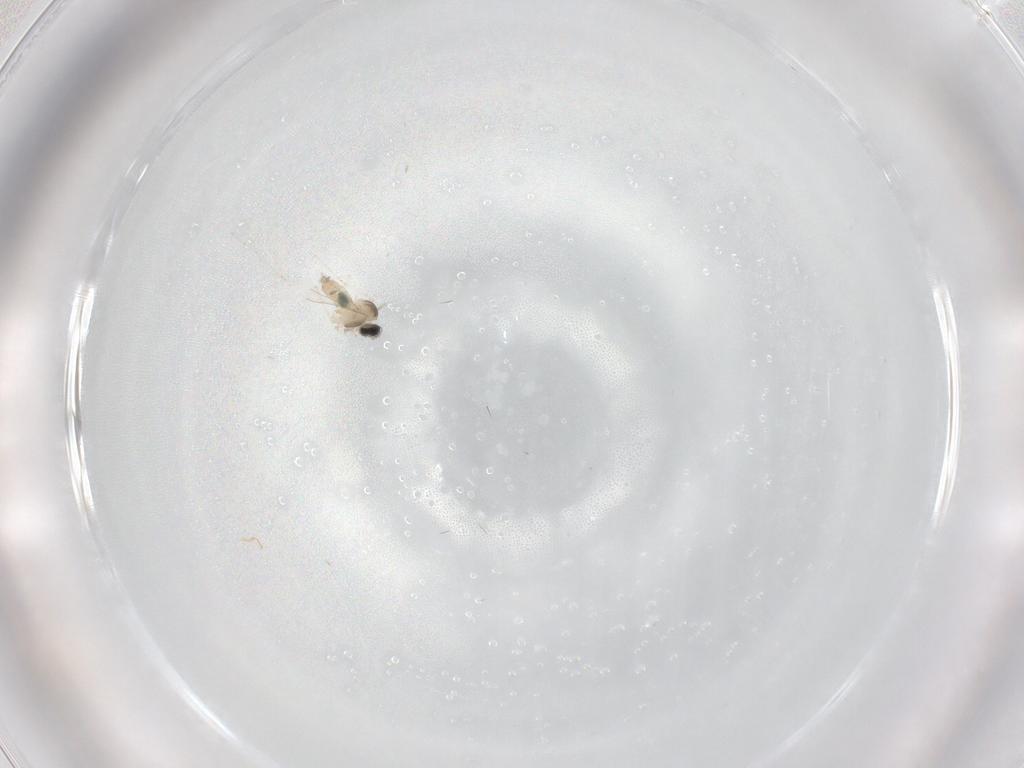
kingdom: Animalia
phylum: Arthropoda
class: Insecta
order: Diptera
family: Cecidomyiidae
